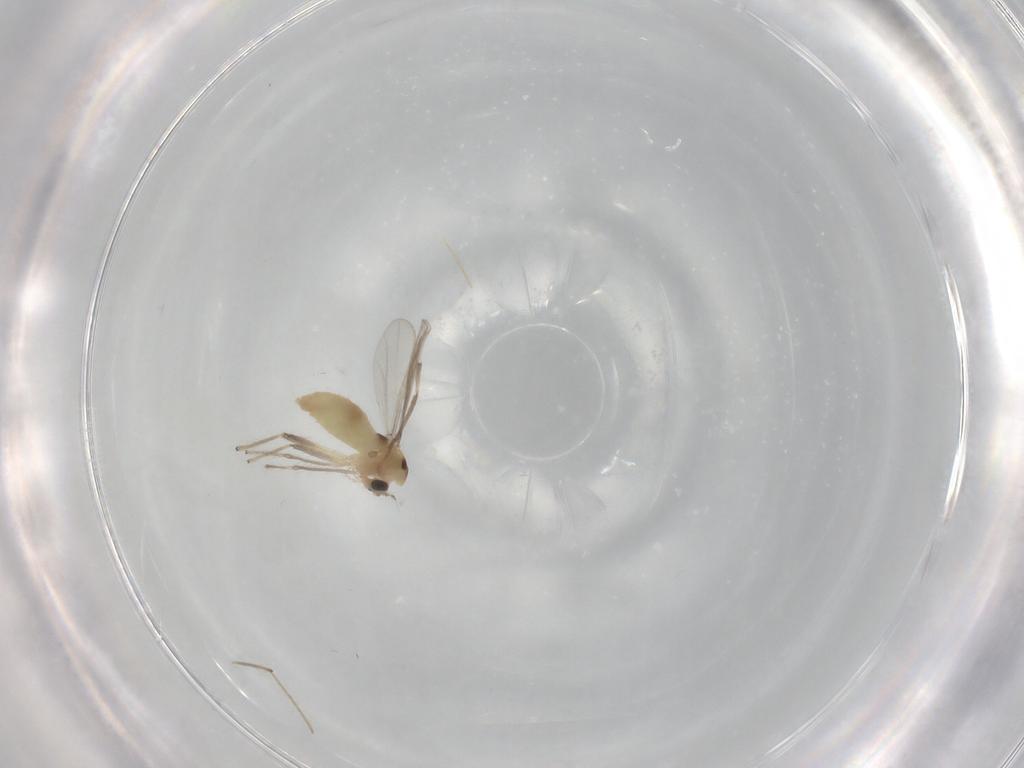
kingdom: Animalia
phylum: Arthropoda
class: Insecta
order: Diptera
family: Chironomidae
